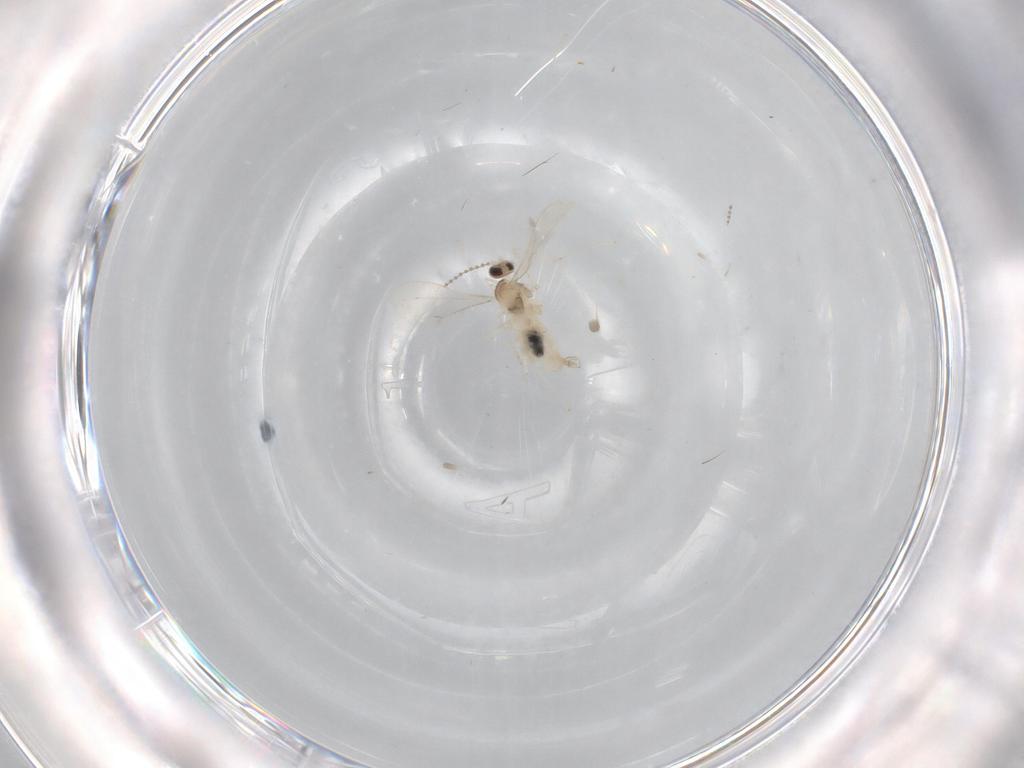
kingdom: Animalia
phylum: Arthropoda
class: Insecta
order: Diptera
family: Cecidomyiidae
